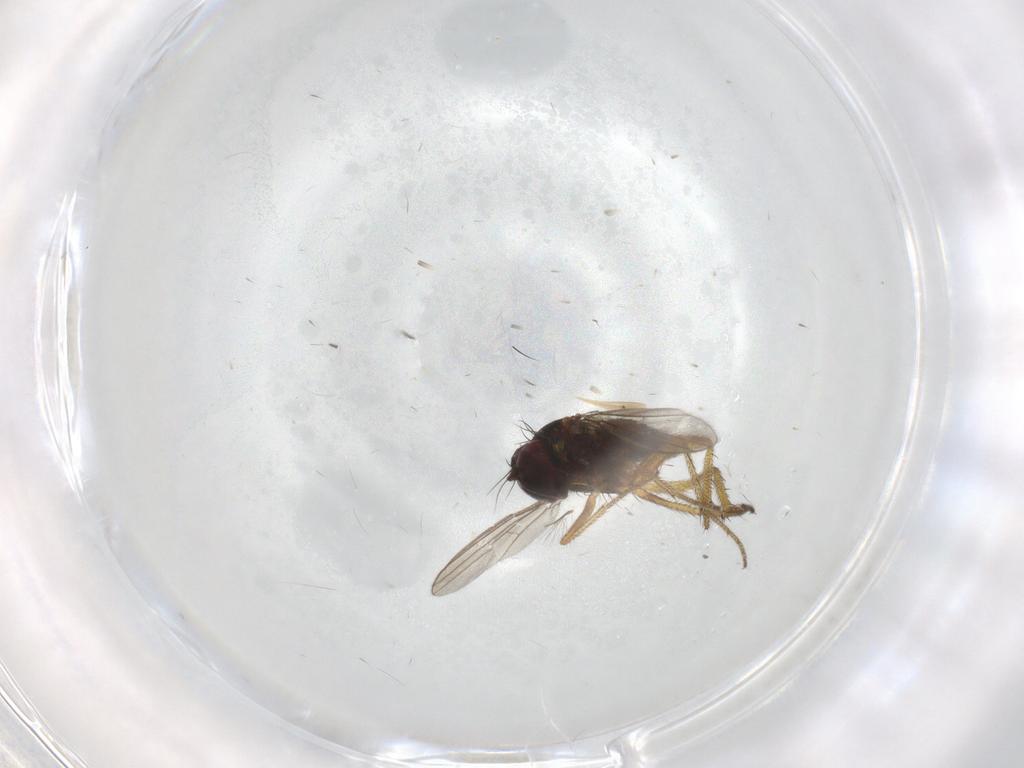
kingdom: Animalia
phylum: Arthropoda
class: Insecta
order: Diptera
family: Dolichopodidae
